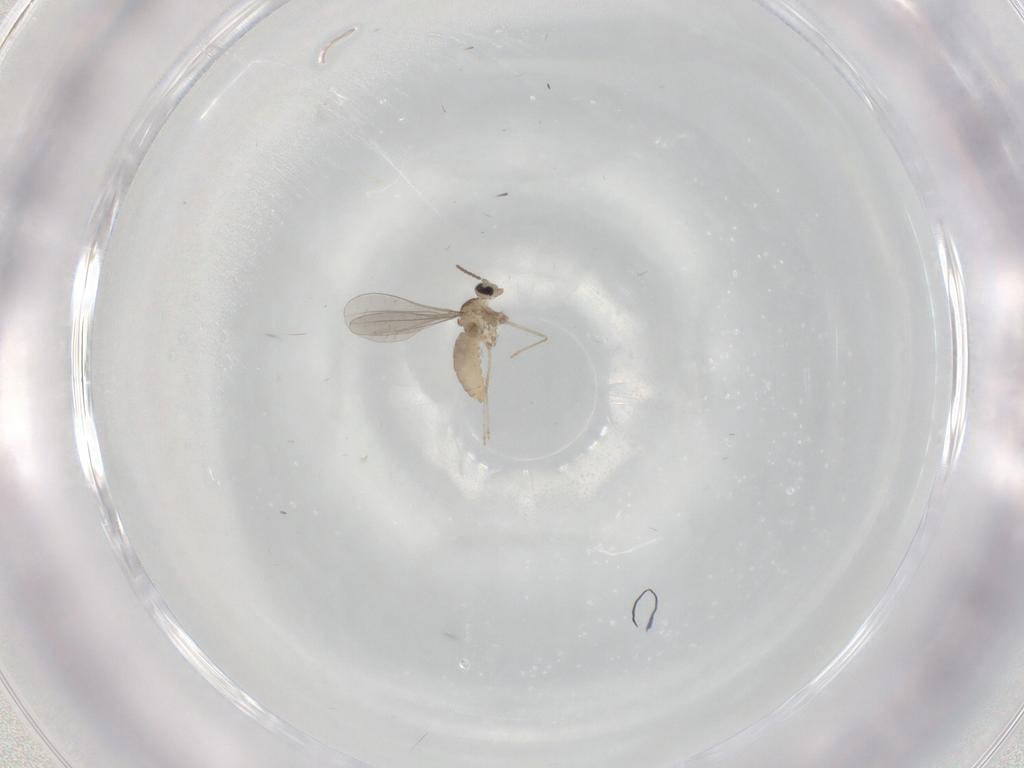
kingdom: Animalia
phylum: Arthropoda
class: Insecta
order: Diptera
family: Cecidomyiidae
